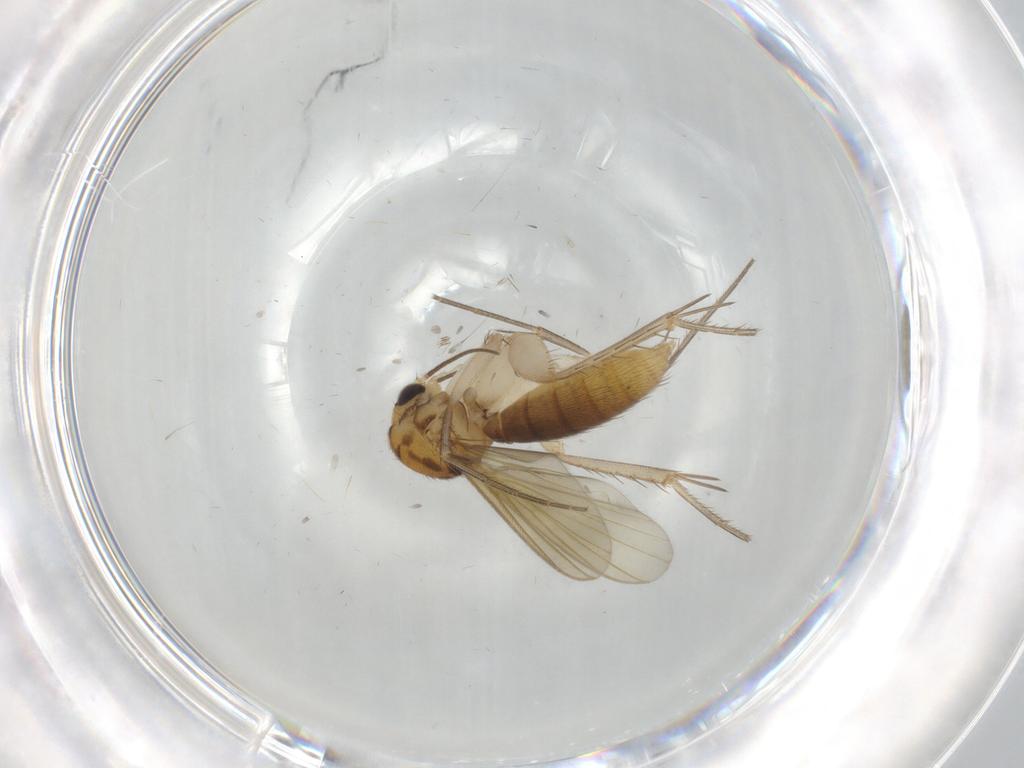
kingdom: Animalia
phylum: Arthropoda
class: Insecta
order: Diptera
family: Mycetophilidae
